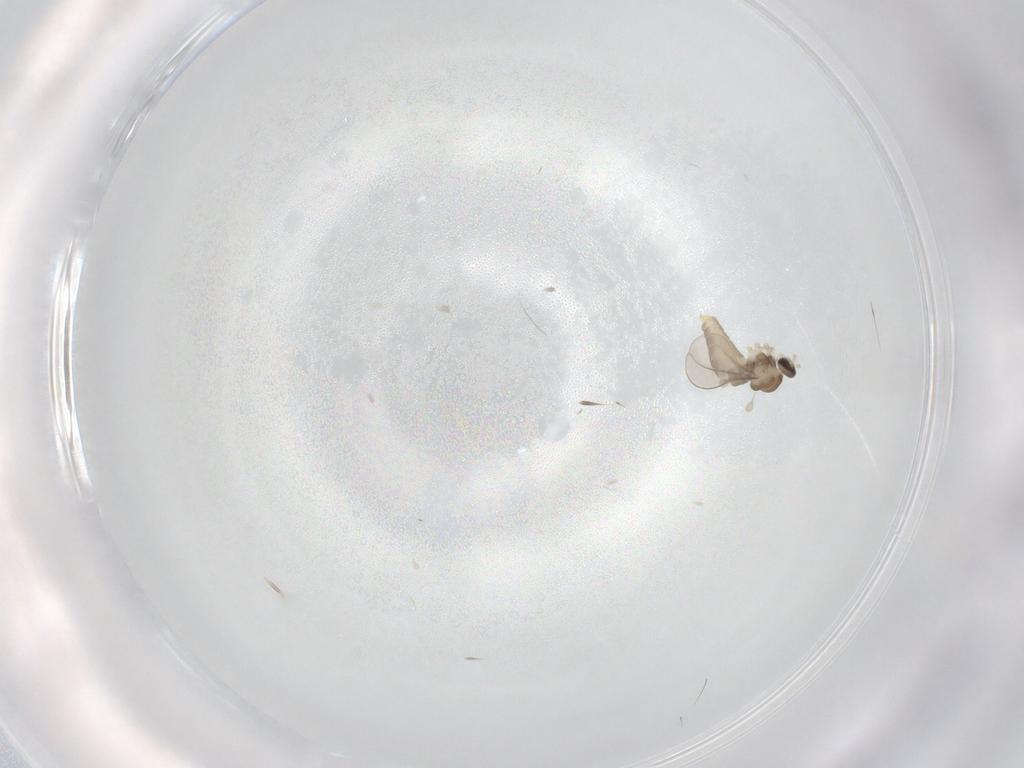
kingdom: Animalia
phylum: Arthropoda
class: Insecta
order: Diptera
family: Cecidomyiidae
